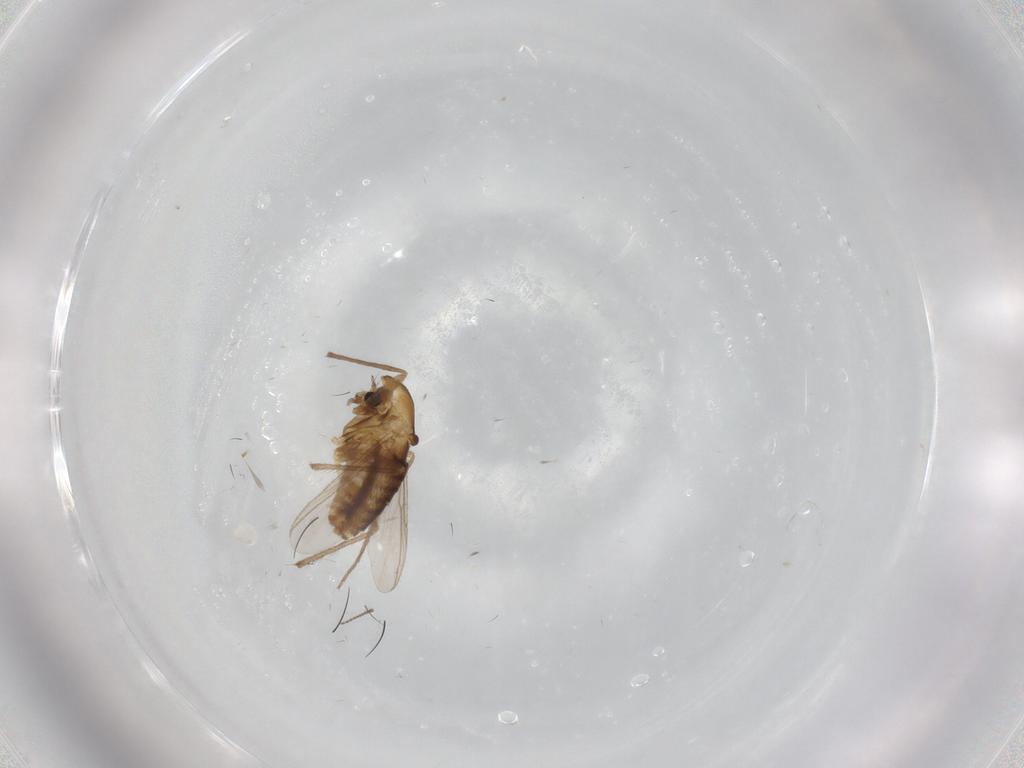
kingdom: Animalia
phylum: Arthropoda
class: Insecta
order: Diptera
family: Chironomidae
